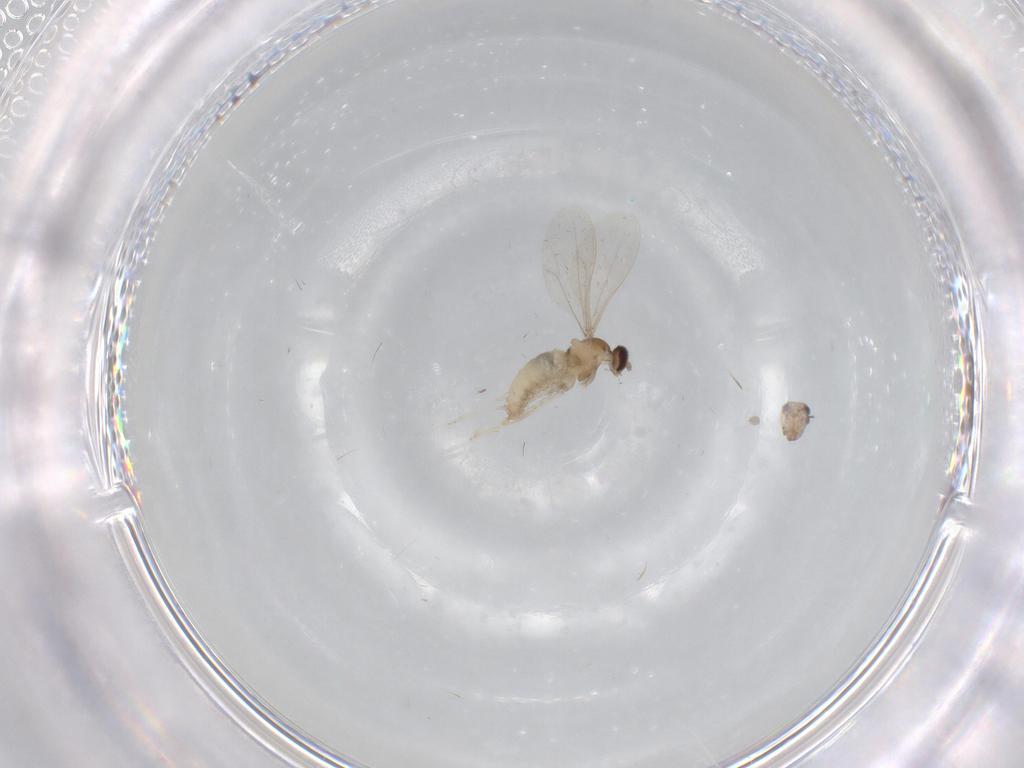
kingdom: Animalia
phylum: Arthropoda
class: Insecta
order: Diptera
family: Cecidomyiidae
